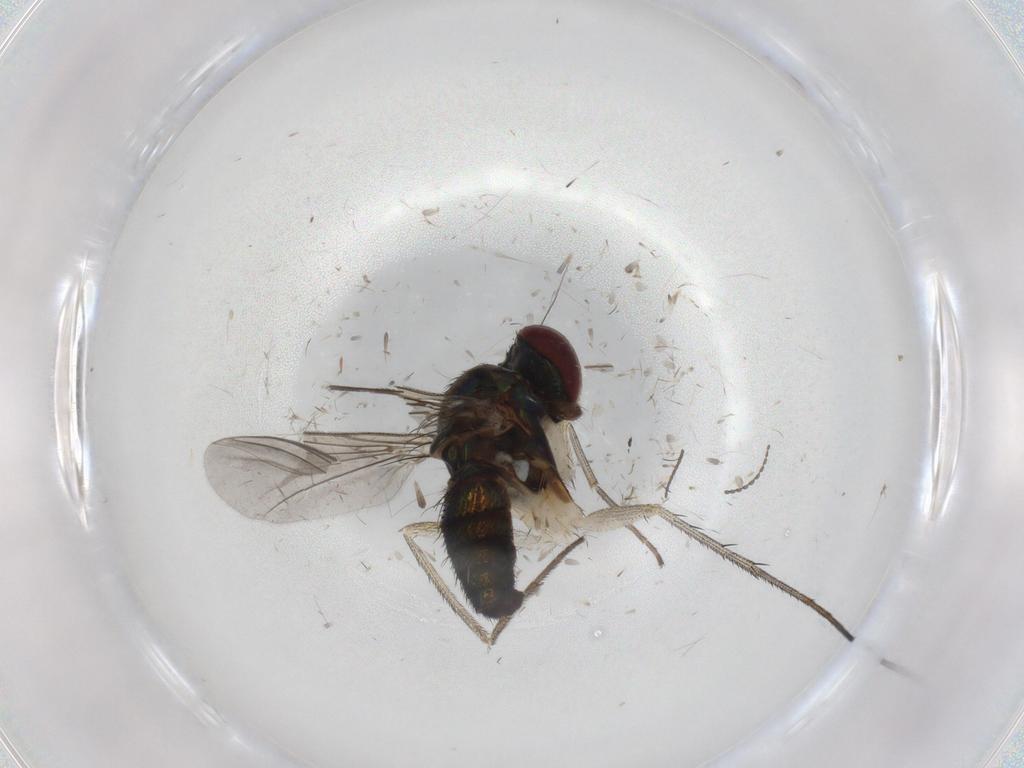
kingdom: Animalia
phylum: Arthropoda
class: Insecta
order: Diptera
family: Dolichopodidae
